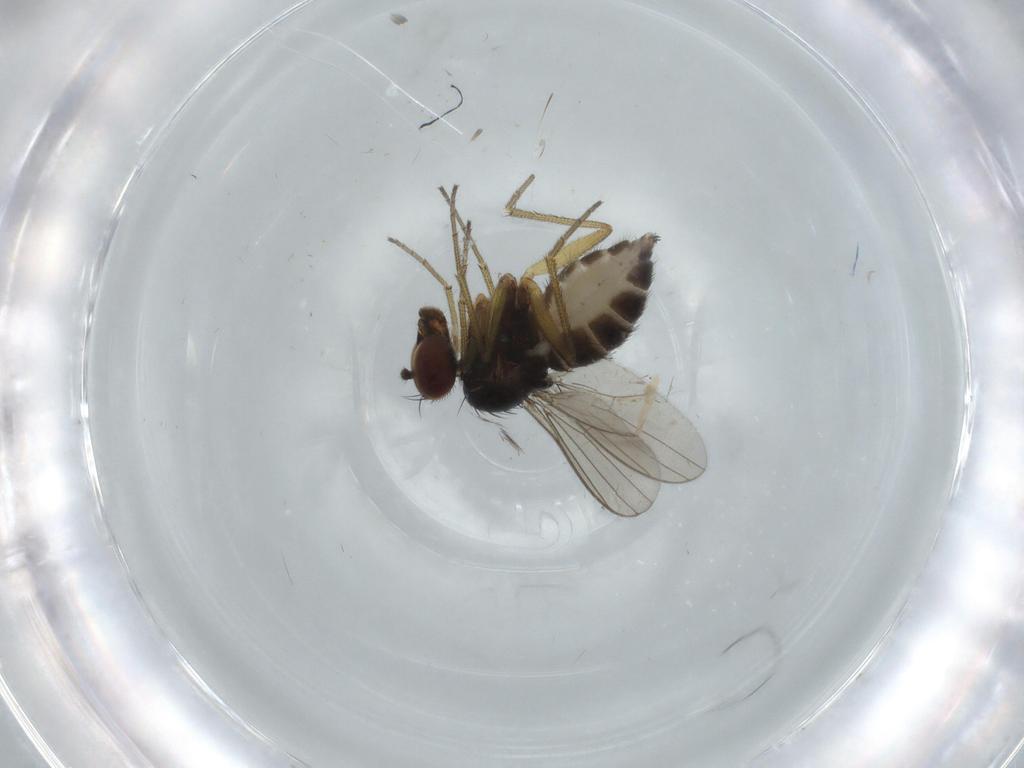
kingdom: Animalia
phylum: Arthropoda
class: Insecta
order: Diptera
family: Dolichopodidae
